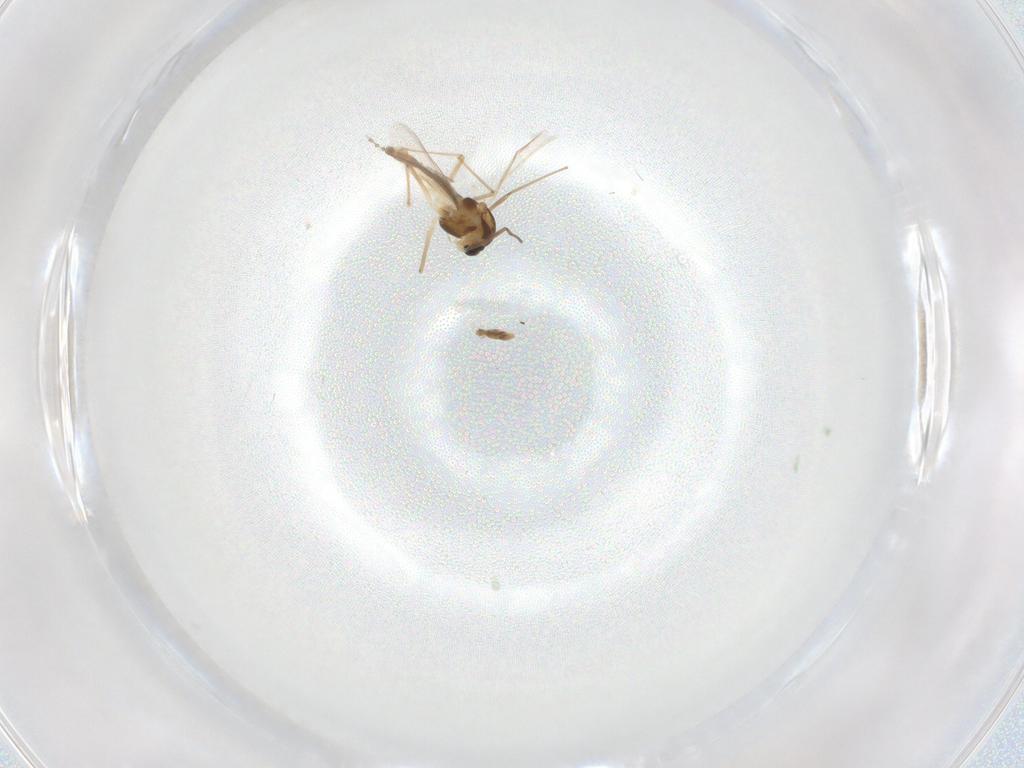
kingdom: Animalia
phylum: Arthropoda
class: Insecta
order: Diptera
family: Chironomidae
